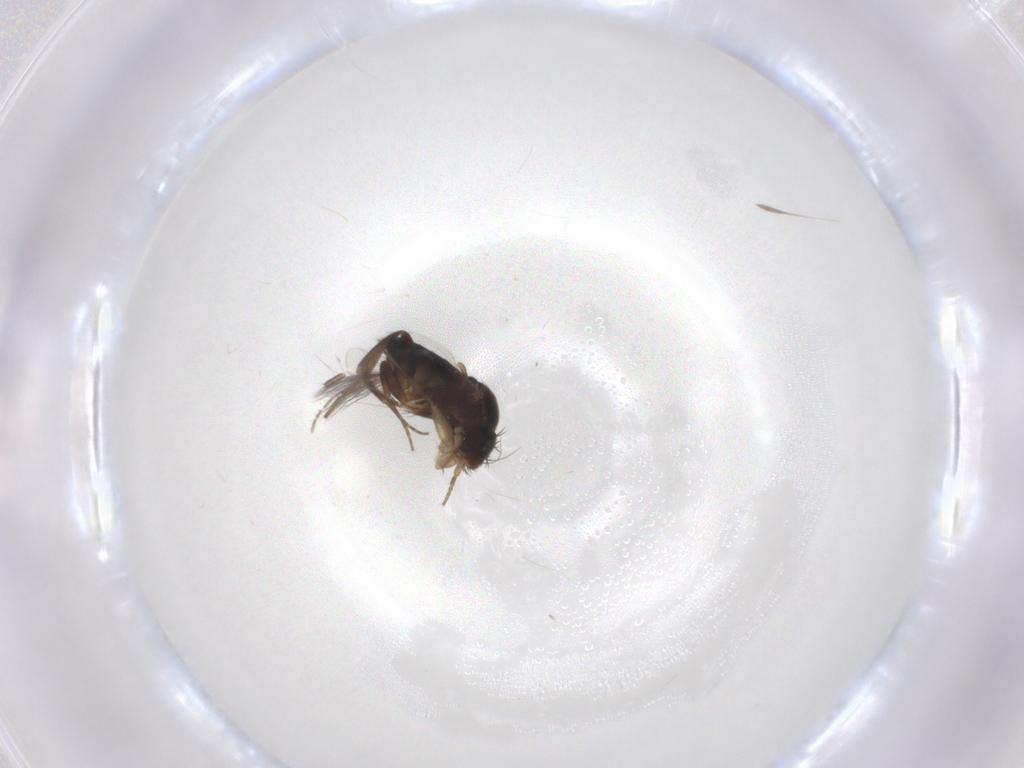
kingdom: Animalia
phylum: Arthropoda
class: Insecta
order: Diptera
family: Phoridae
